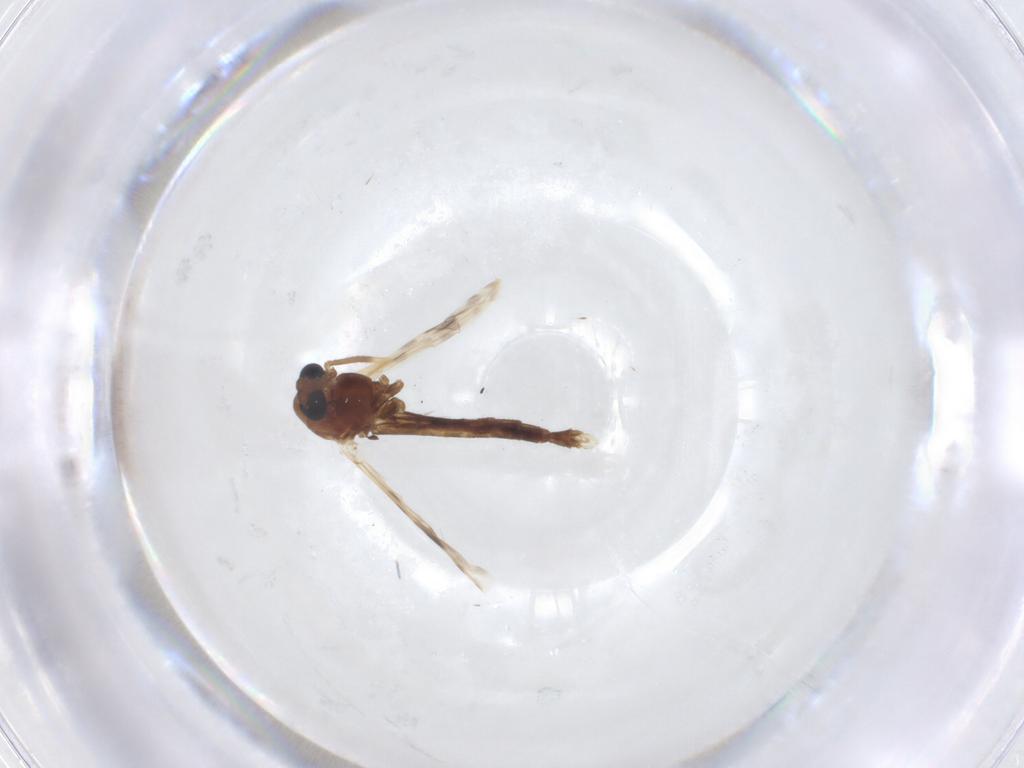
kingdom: Animalia
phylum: Arthropoda
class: Insecta
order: Diptera
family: Chironomidae
